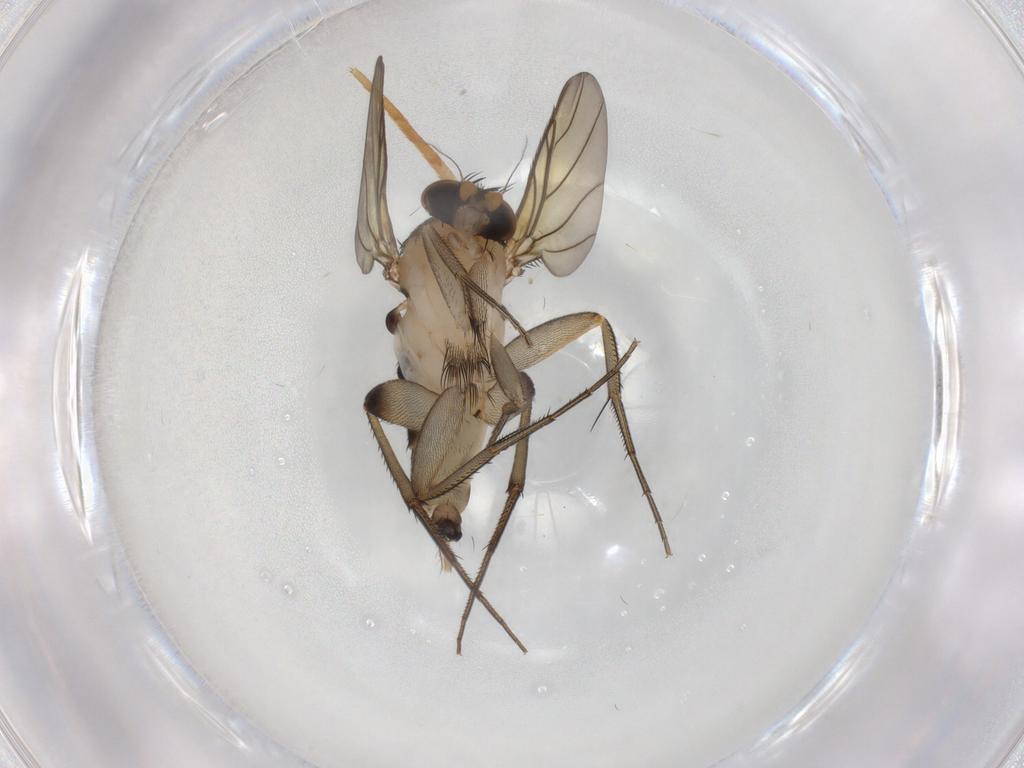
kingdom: Animalia
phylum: Arthropoda
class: Insecta
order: Diptera
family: Phoridae
